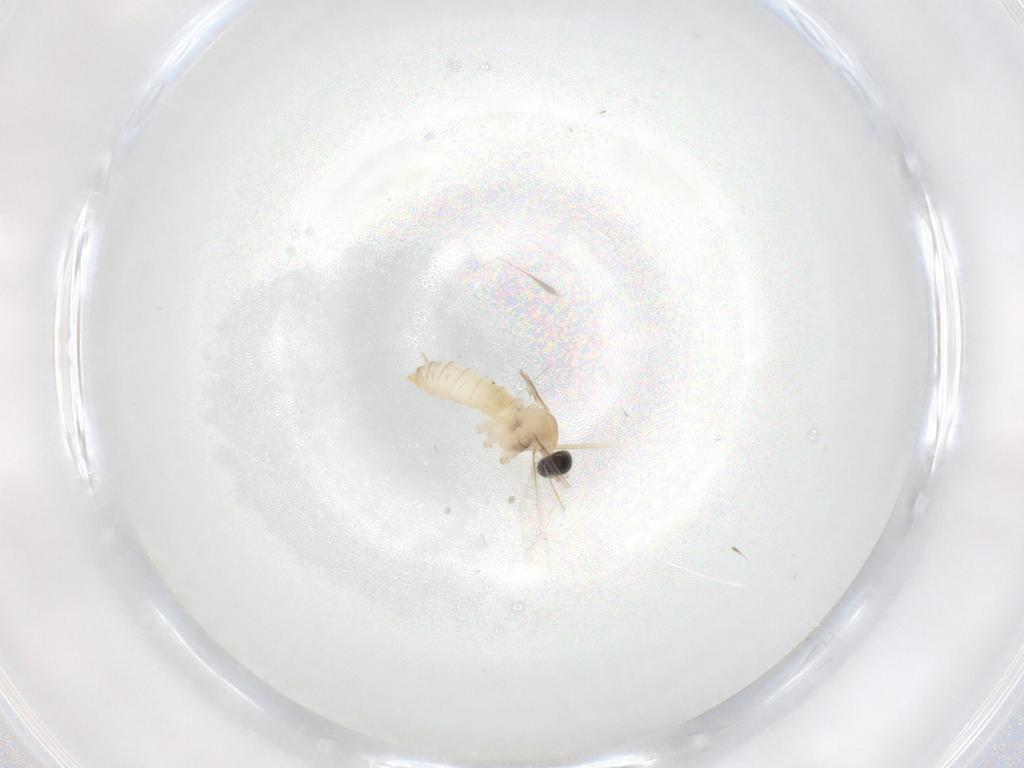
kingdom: Animalia
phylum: Arthropoda
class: Insecta
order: Diptera
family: Cecidomyiidae
